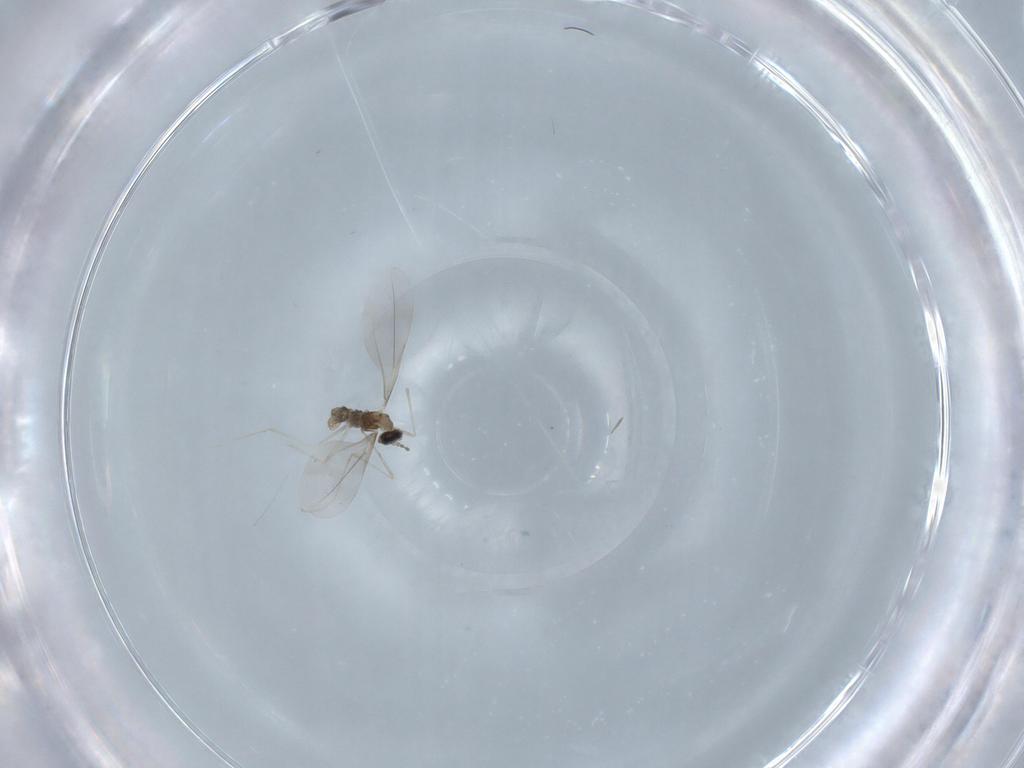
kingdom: Animalia
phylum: Arthropoda
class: Insecta
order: Diptera
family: Cecidomyiidae
